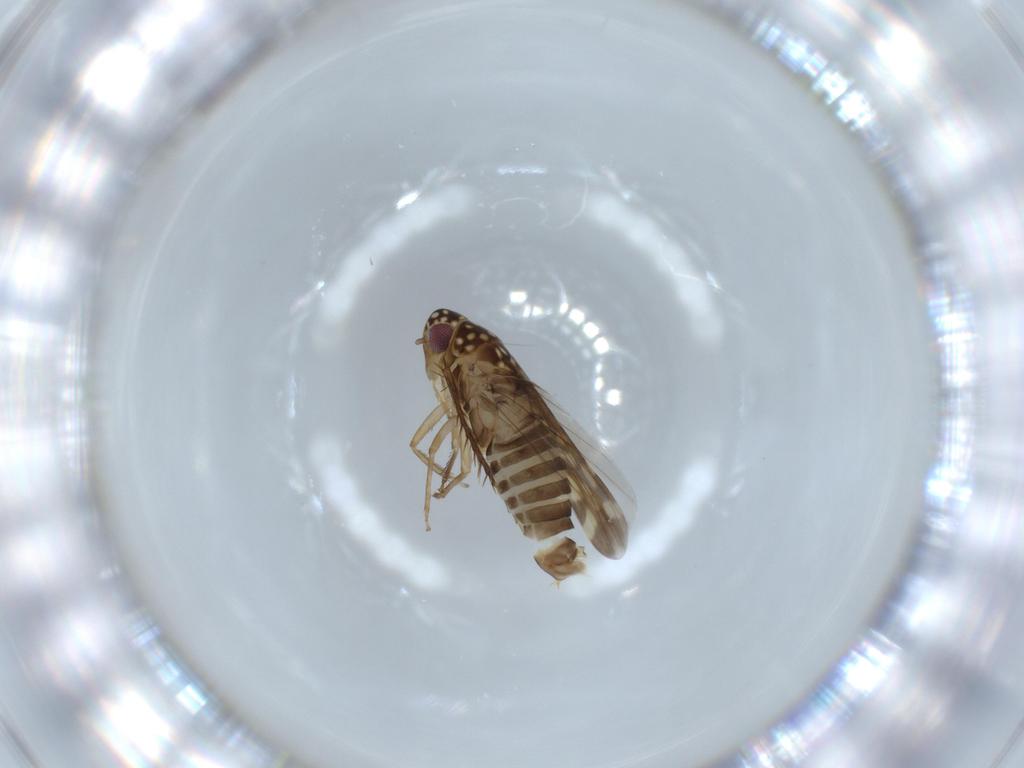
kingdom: Animalia
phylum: Arthropoda
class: Insecta
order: Hemiptera
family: Cicadellidae
